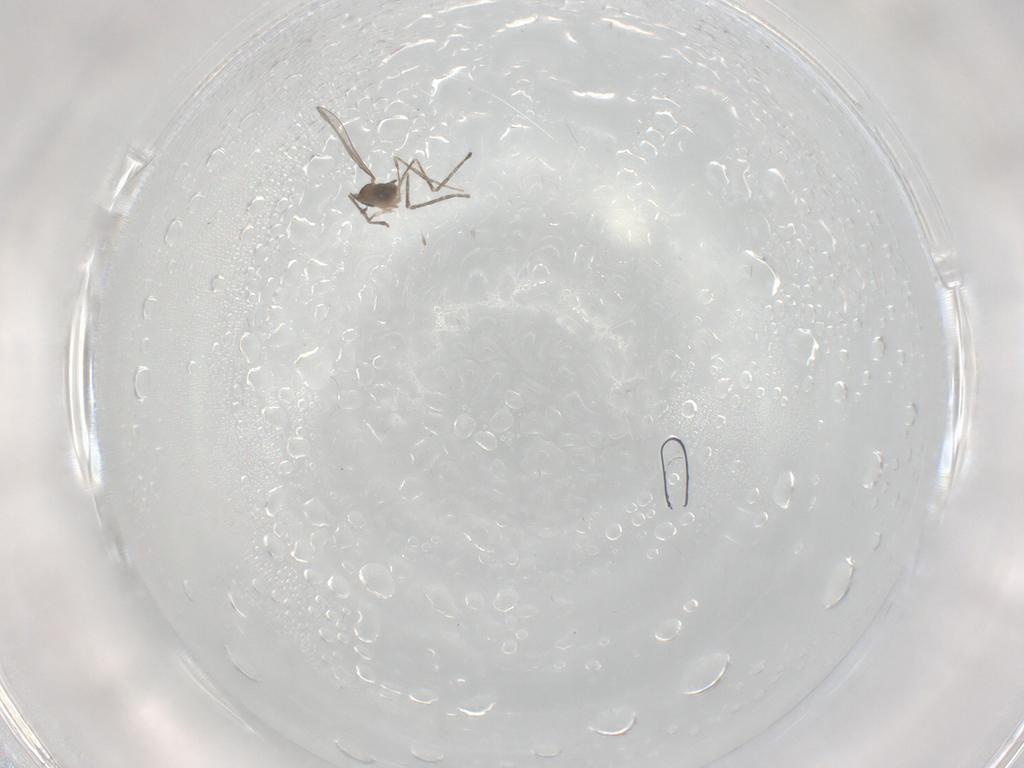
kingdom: Animalia
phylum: Arthropoda
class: Insecta
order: Diptera
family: Cecidomyiidae
